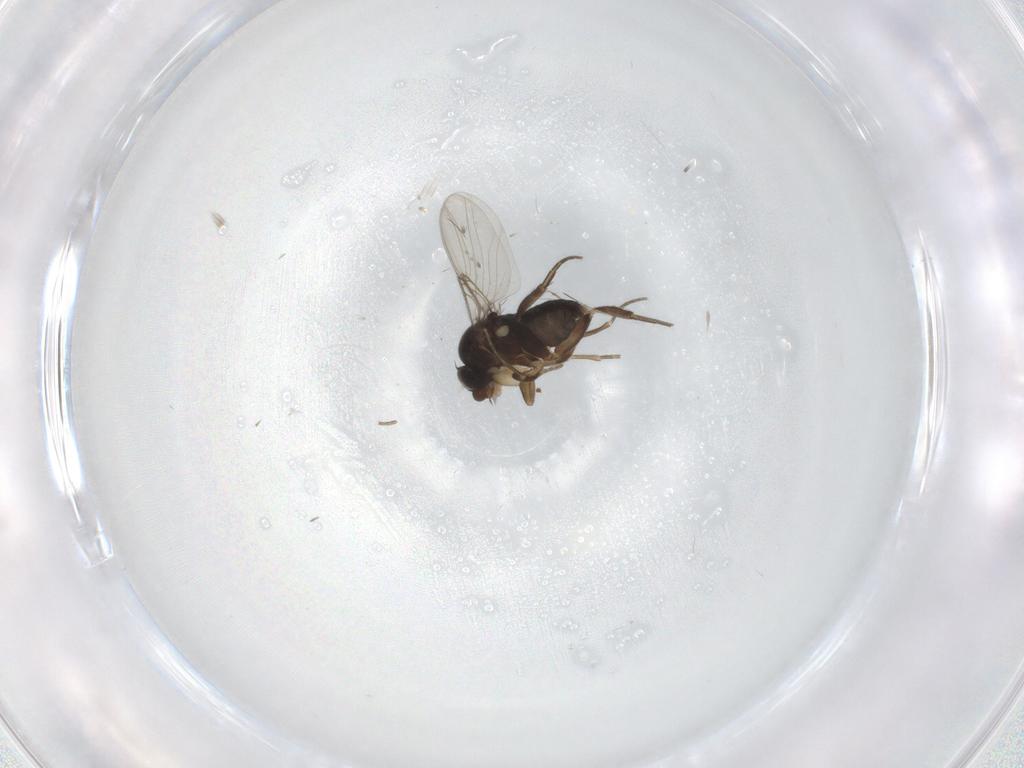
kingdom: Animalia
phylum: Arthropoda
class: Insecta
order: Diptera
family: Phoridae
